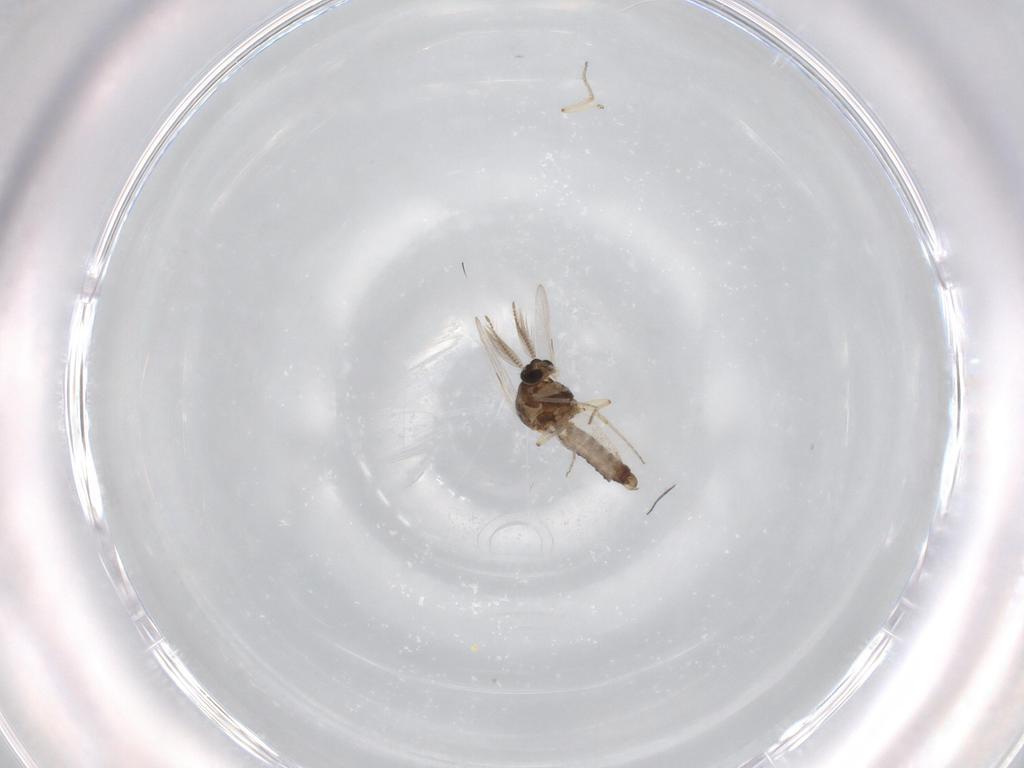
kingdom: Animalia
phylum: Arthropoda
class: Insecta
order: Diptera
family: Ceratopogonidae
